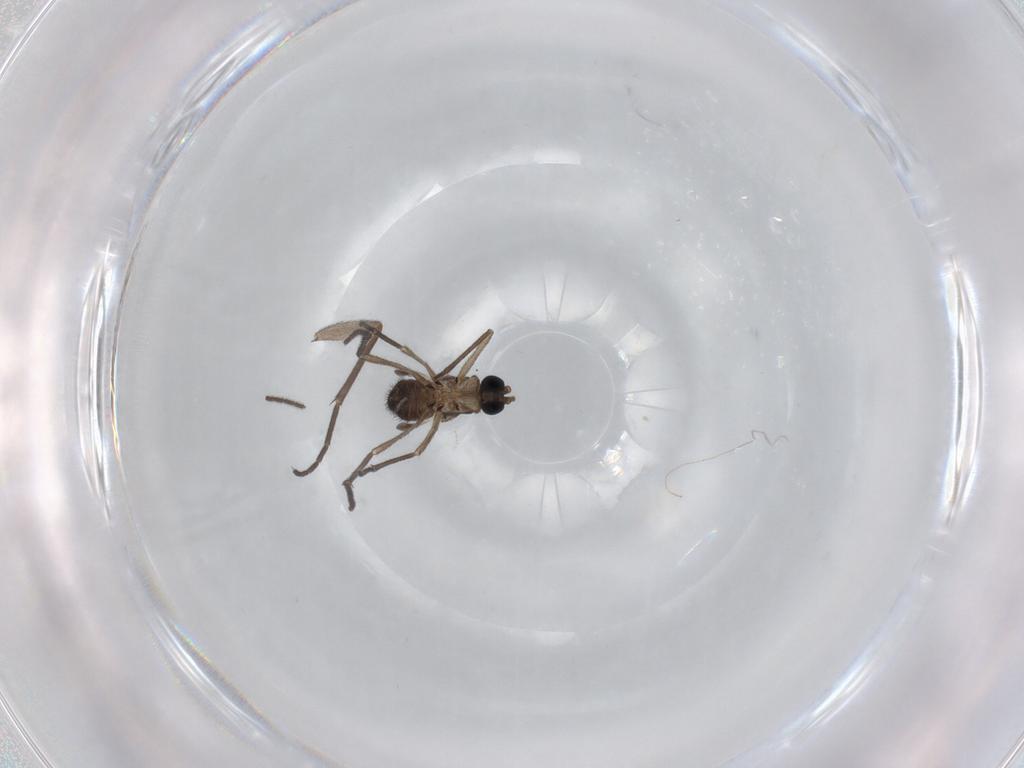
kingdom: Animalia
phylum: Arthropoda
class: Insecta
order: Diptera
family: Sciaridae
